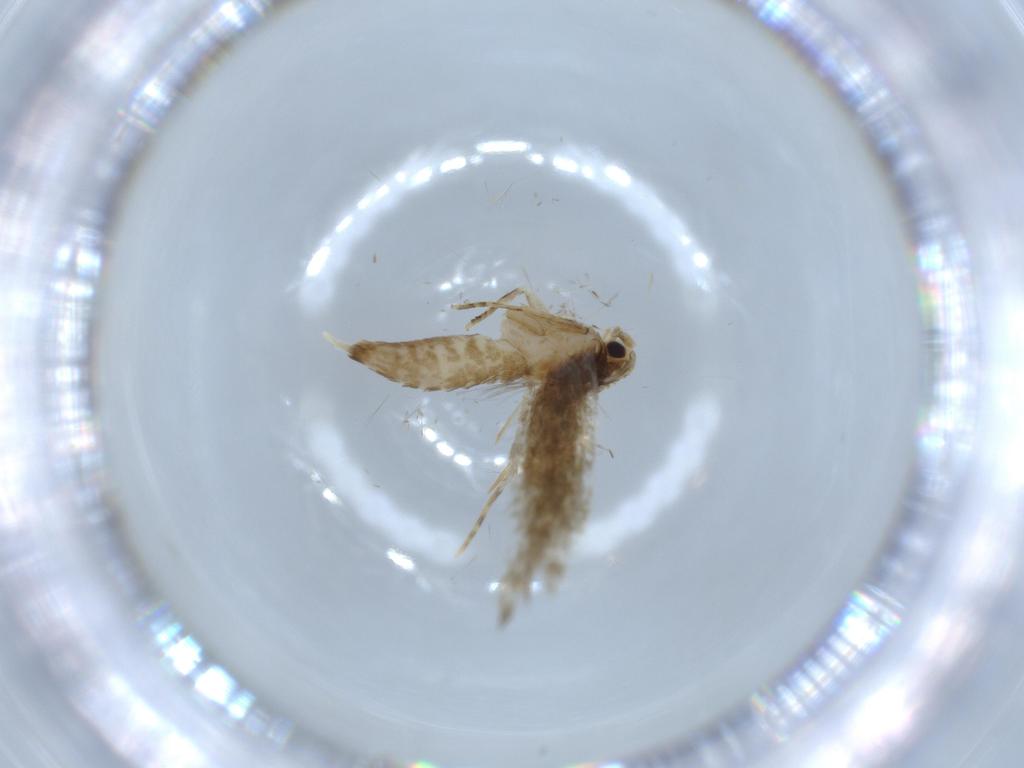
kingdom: Animalia
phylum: Arthropoda
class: Insecta
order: Lepidoptera
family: Tineidae
